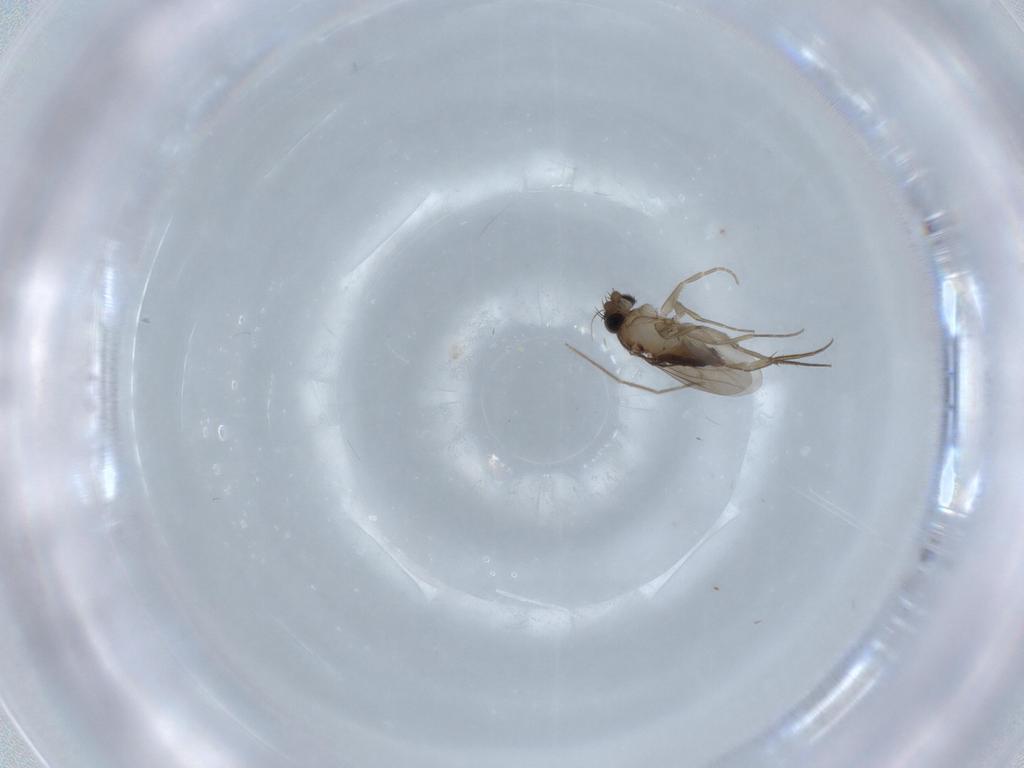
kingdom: Animalia
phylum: Arthropoda
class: Insecta
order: Diptera
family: Phoridae
